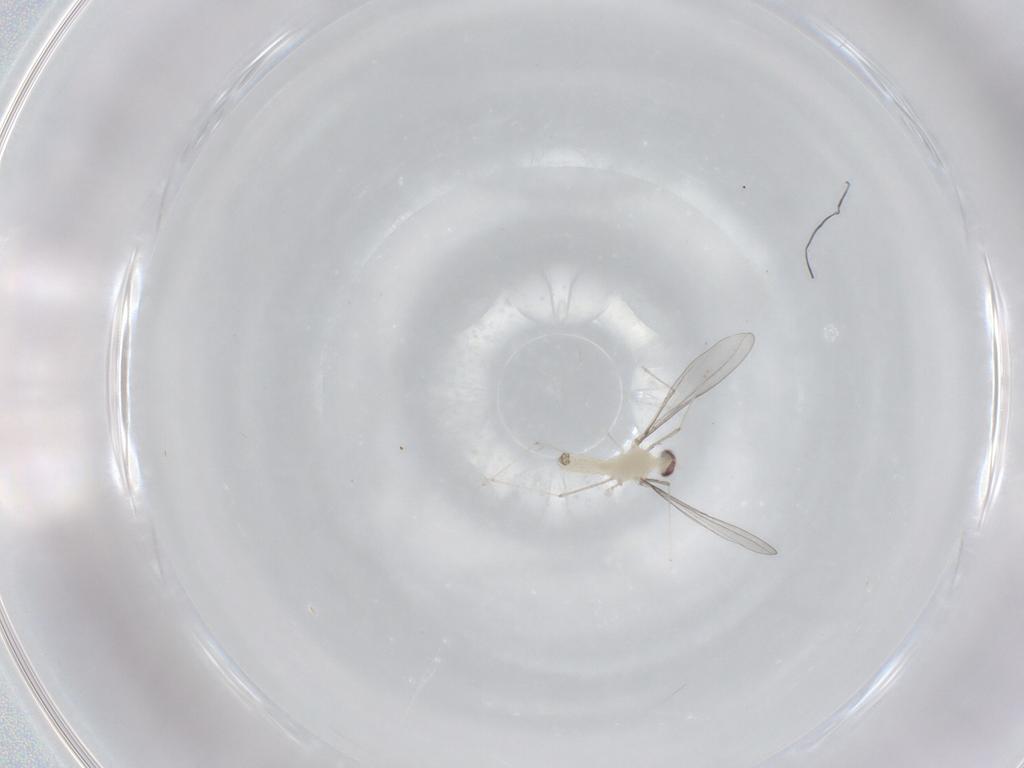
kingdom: Animalia
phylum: Arthropoda
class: Insecta
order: Diptera
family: Cecidomyiidae
